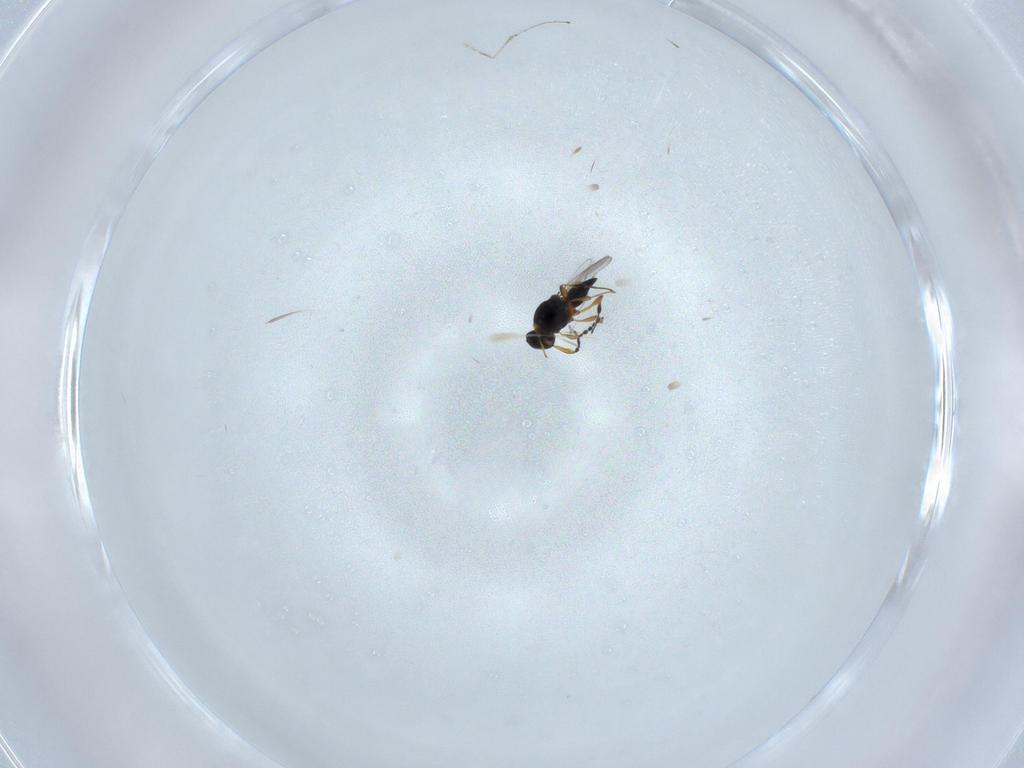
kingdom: Animalia
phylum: Arthropoda
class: Insecta
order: Hymenoptera
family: Platygastridae
